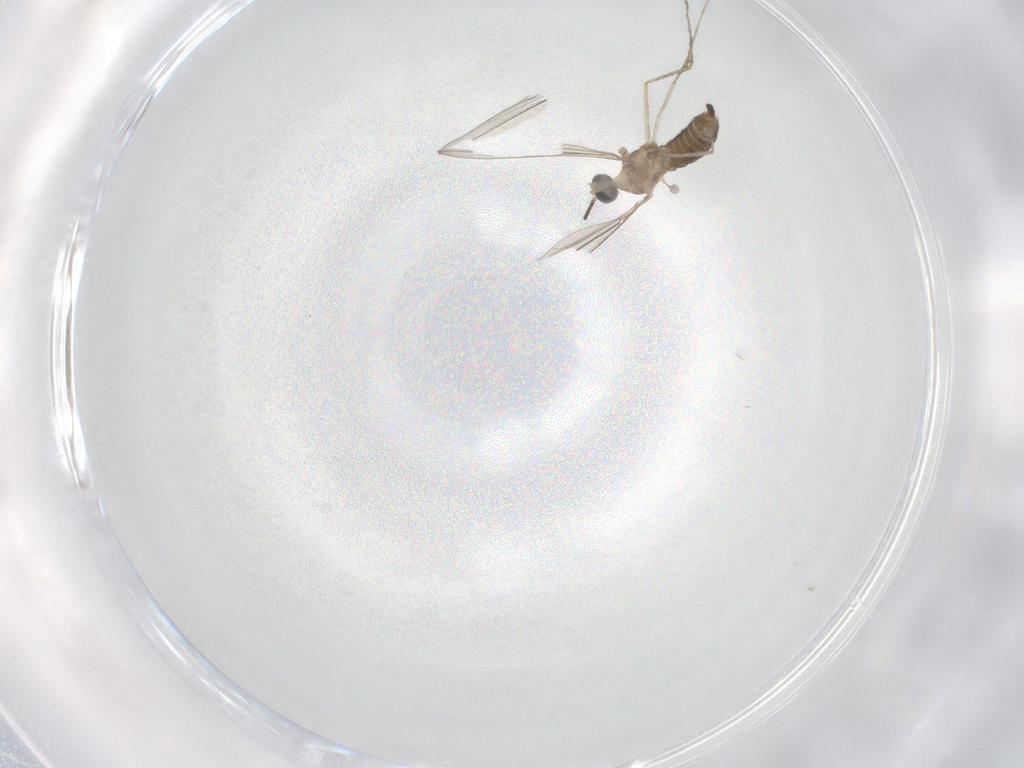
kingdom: Animalia
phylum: Arthropoda
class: Insecta
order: Diptera
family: Cecidomyiidae
